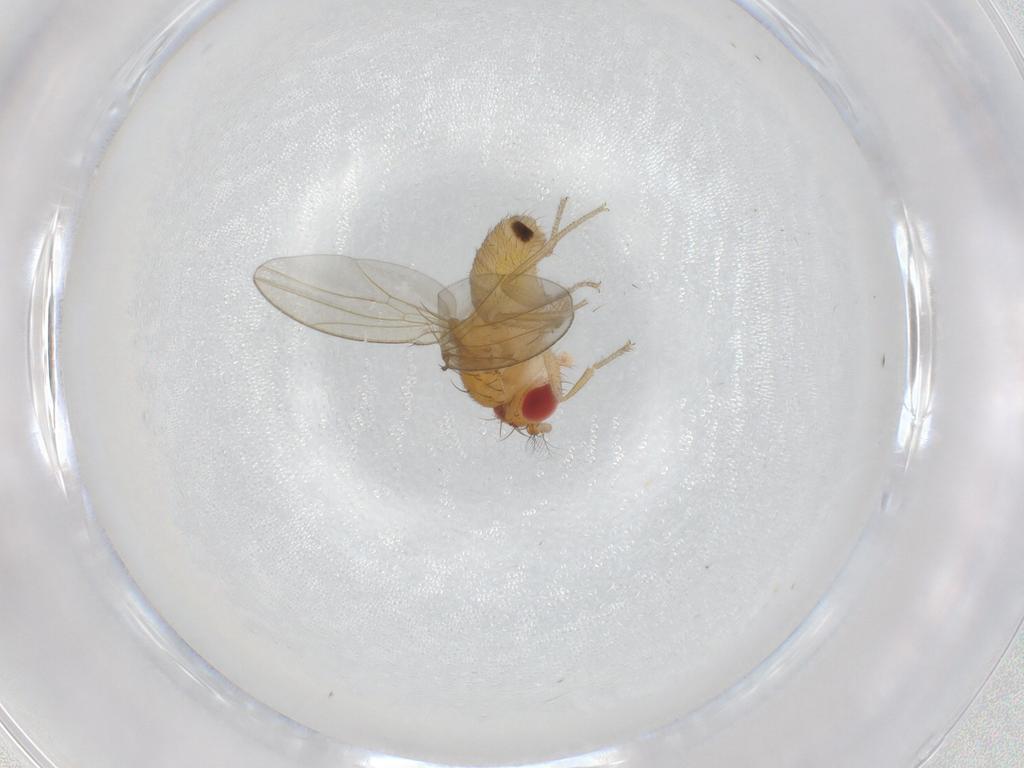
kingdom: Animalia
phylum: Arthropoda
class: Insecta
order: Diptera
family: Drosophilidae
